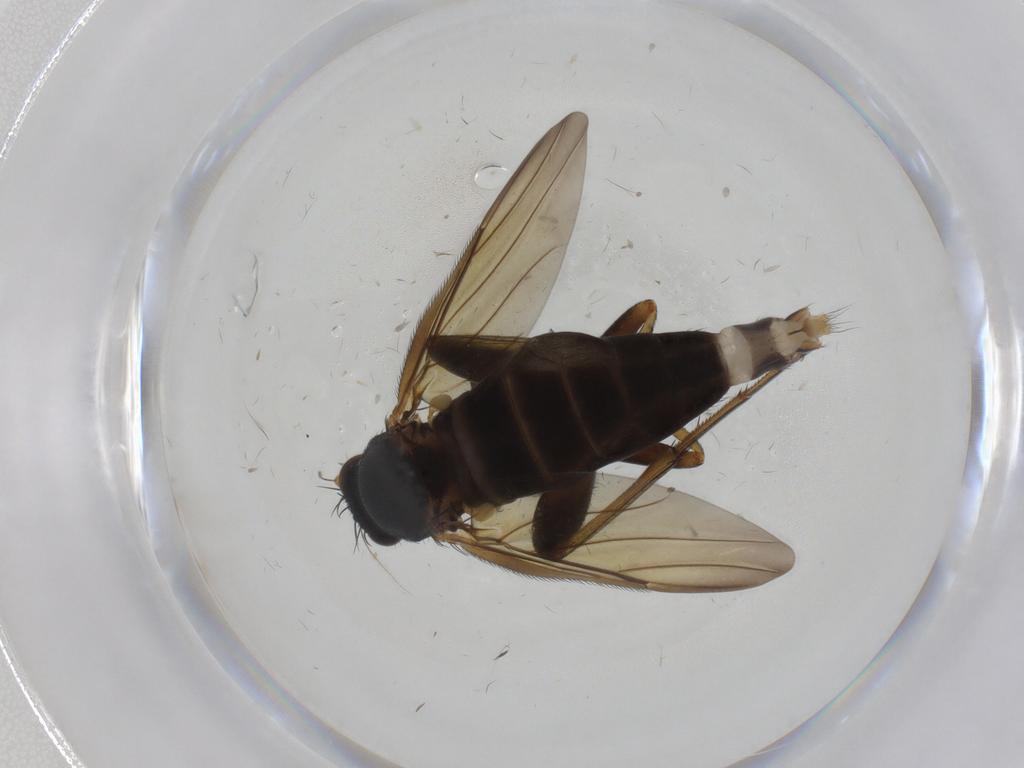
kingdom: Animalia
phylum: Arthropoda
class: Insecta
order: Diptera
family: Phoridae
